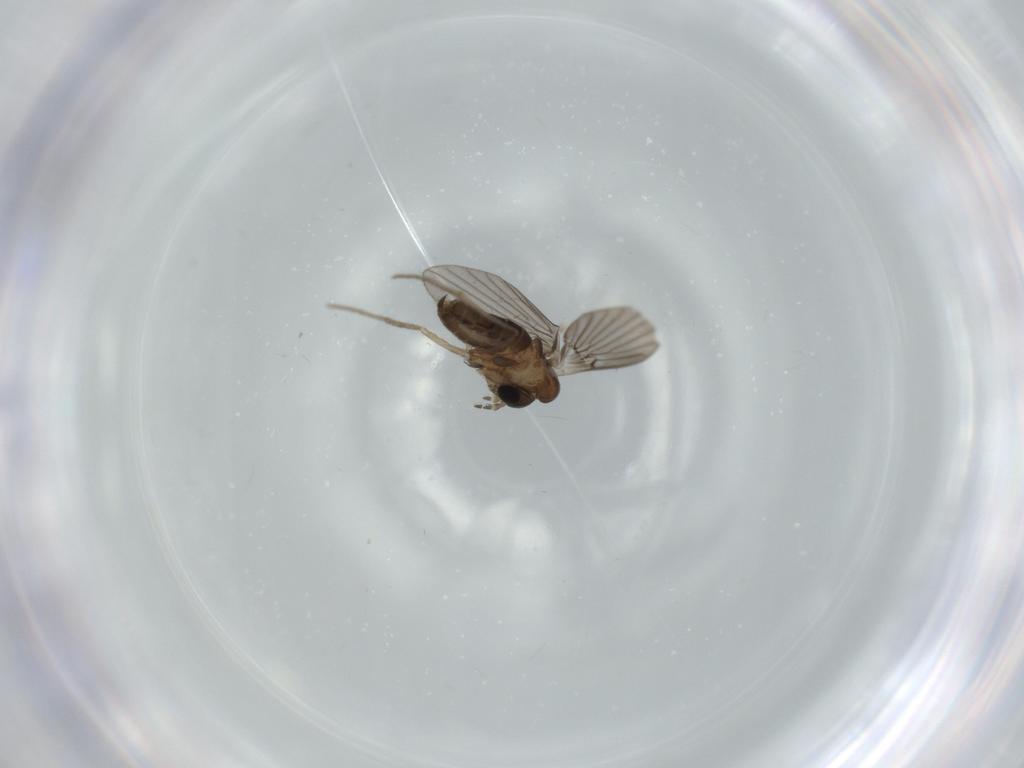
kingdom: Animalia
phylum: Arthropoda
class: Insecta
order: Diptera
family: Psychodidae
